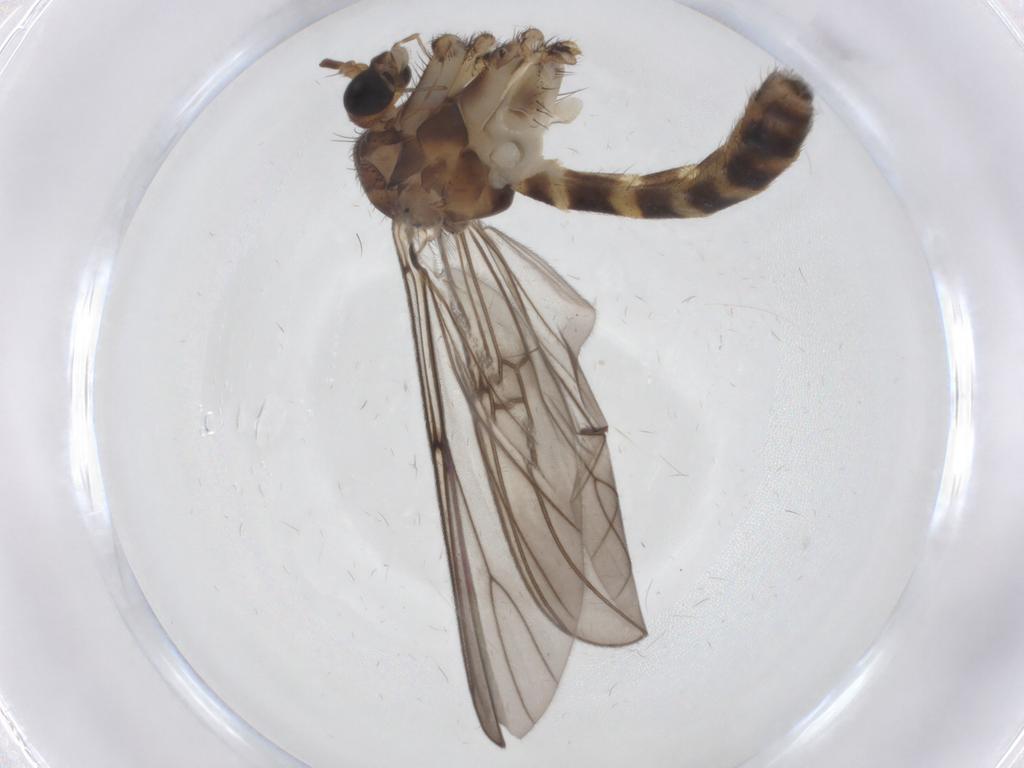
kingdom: Animalia
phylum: Arthropoda
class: Insecta
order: Diptera
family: Mycetophilidae
